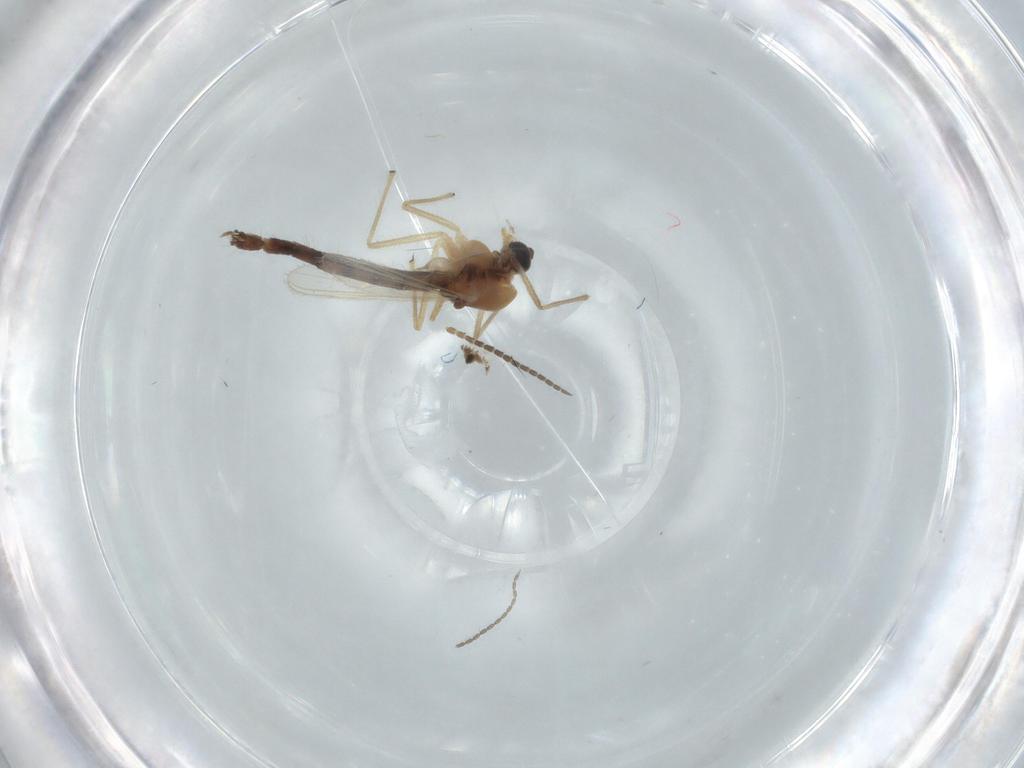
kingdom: Animalia
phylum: Arthropoda
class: Insecta
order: Diptera
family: Chironomidae
